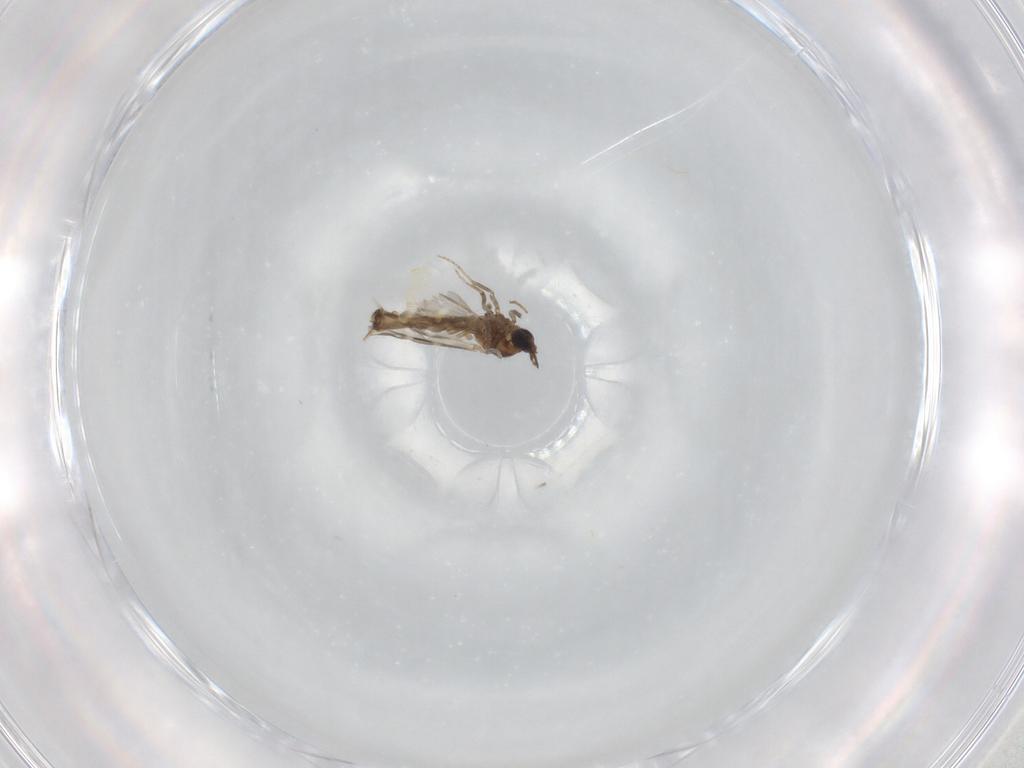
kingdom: Animalia
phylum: Arthropoda
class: Insecta
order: Diptera
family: Ceratopogonidae
